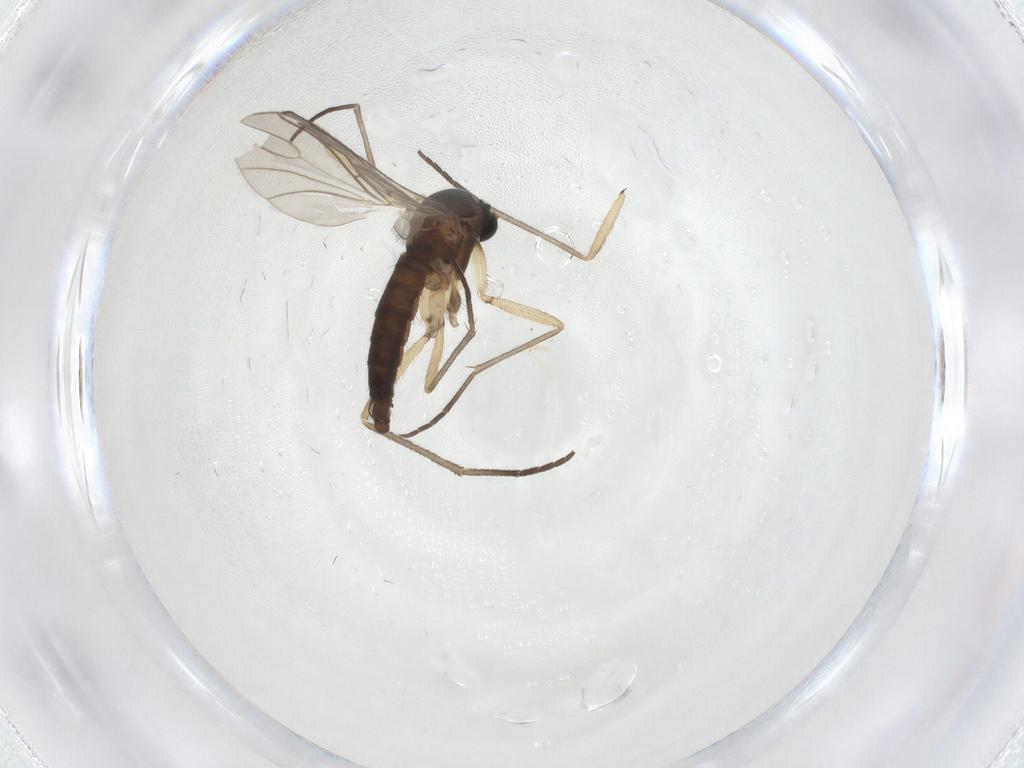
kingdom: Animalia
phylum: Arthropoda
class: Insecta
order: Diptera
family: Sciaridae
